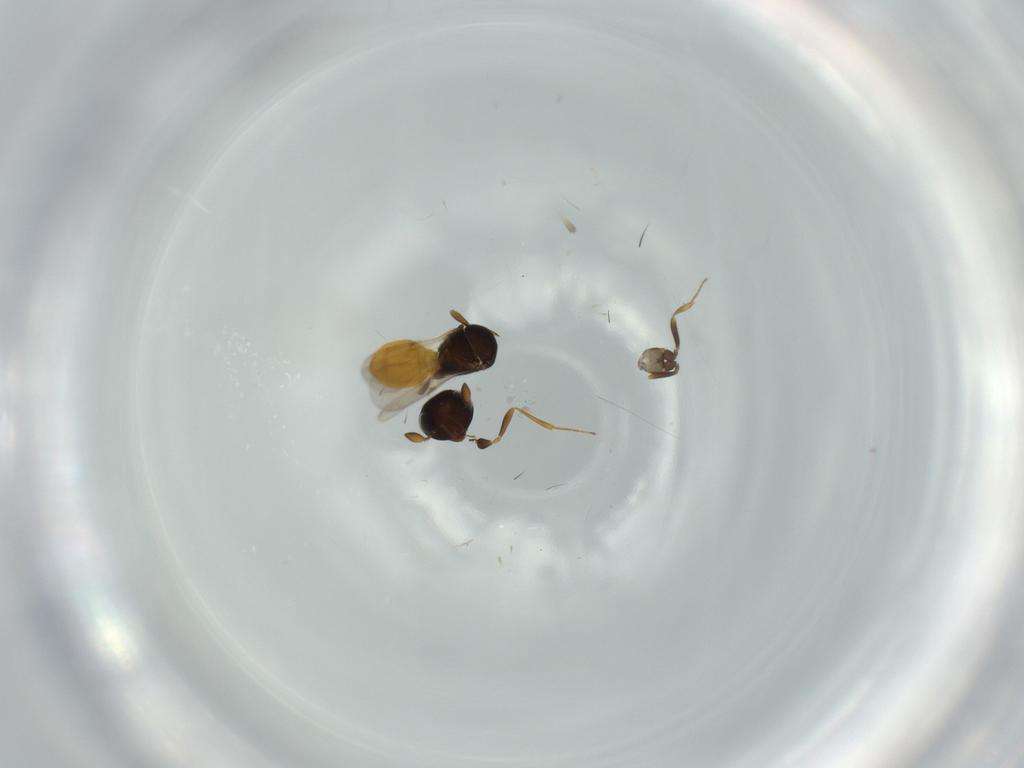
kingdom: Animalia
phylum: Arthropoda
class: Insecta
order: Hymenoptera
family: Scelionidae
